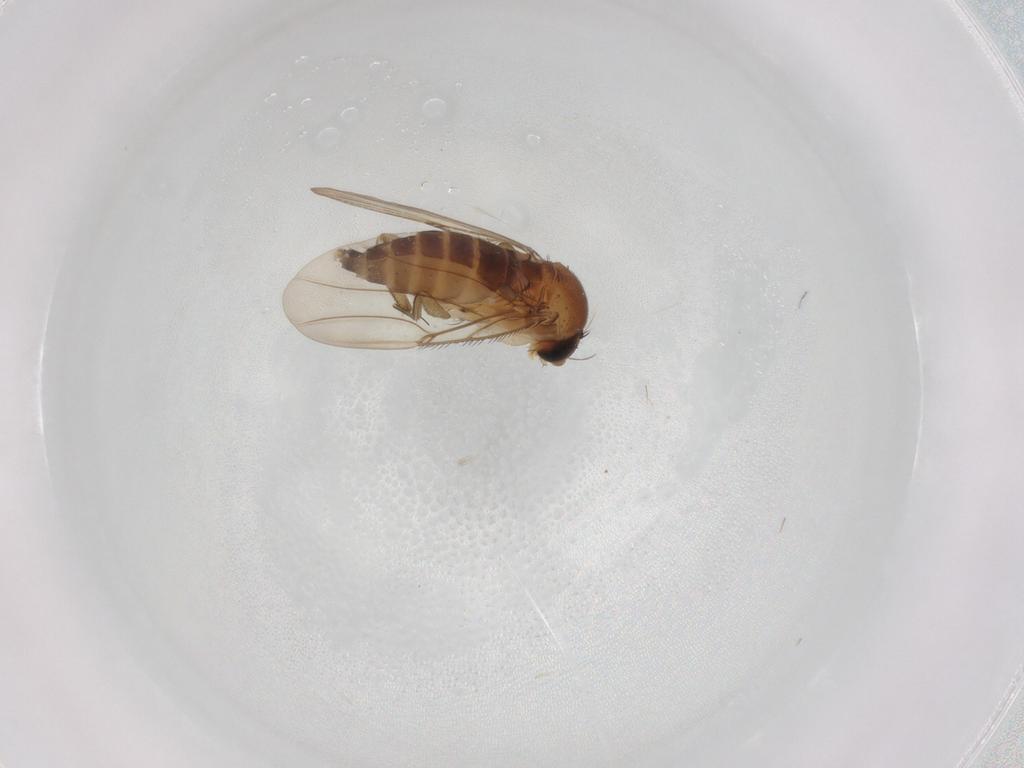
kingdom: Animalia
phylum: Arthropoda
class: Insecta
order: Diptera
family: Phoridae
